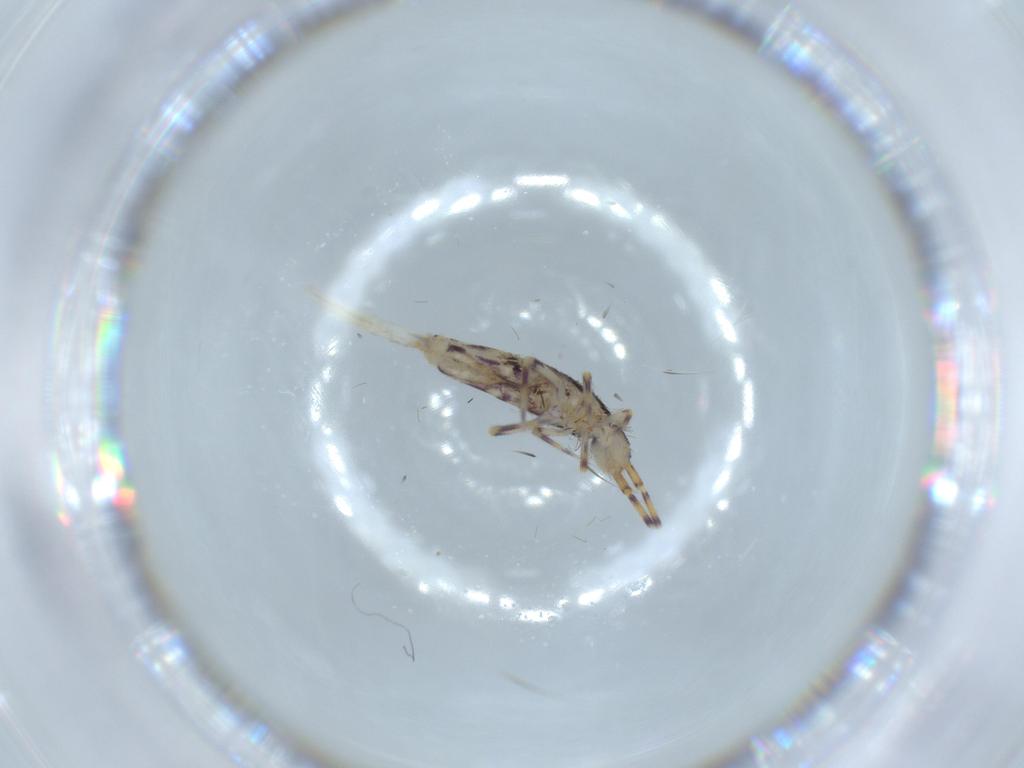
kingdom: Animalia
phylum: Arthropoda
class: Collembola
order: Entomobryomorpha
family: Entomobryidae
